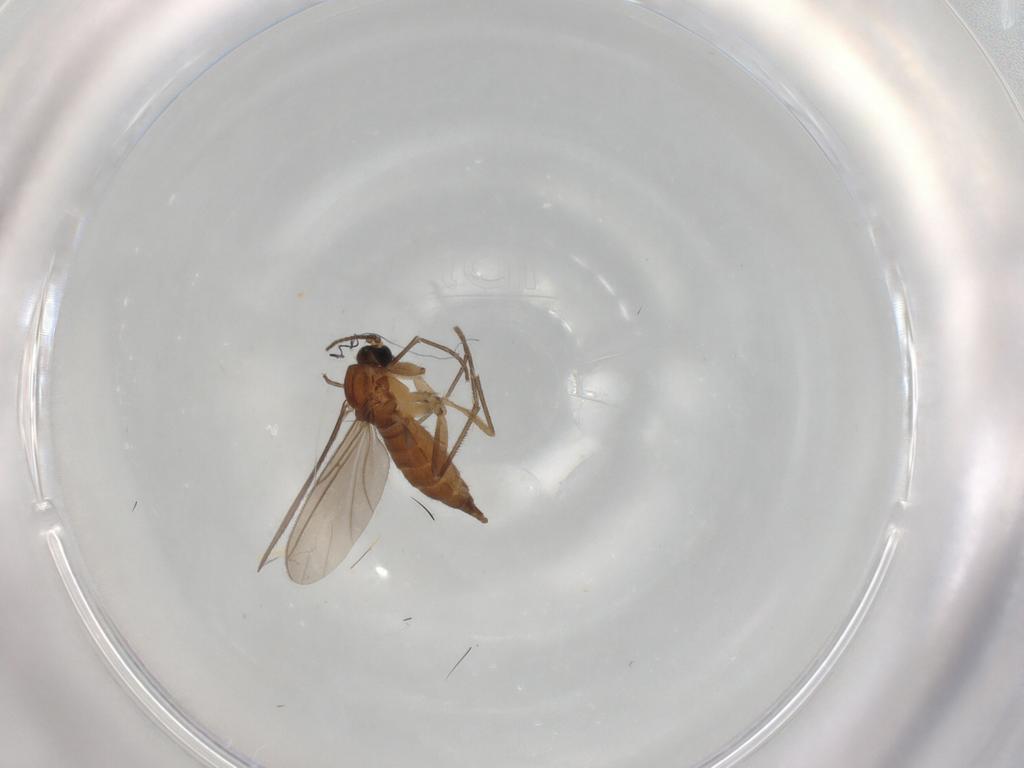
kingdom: Animalia
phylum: Arthropoda
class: Insecta
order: Diptera
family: Sciaridae
